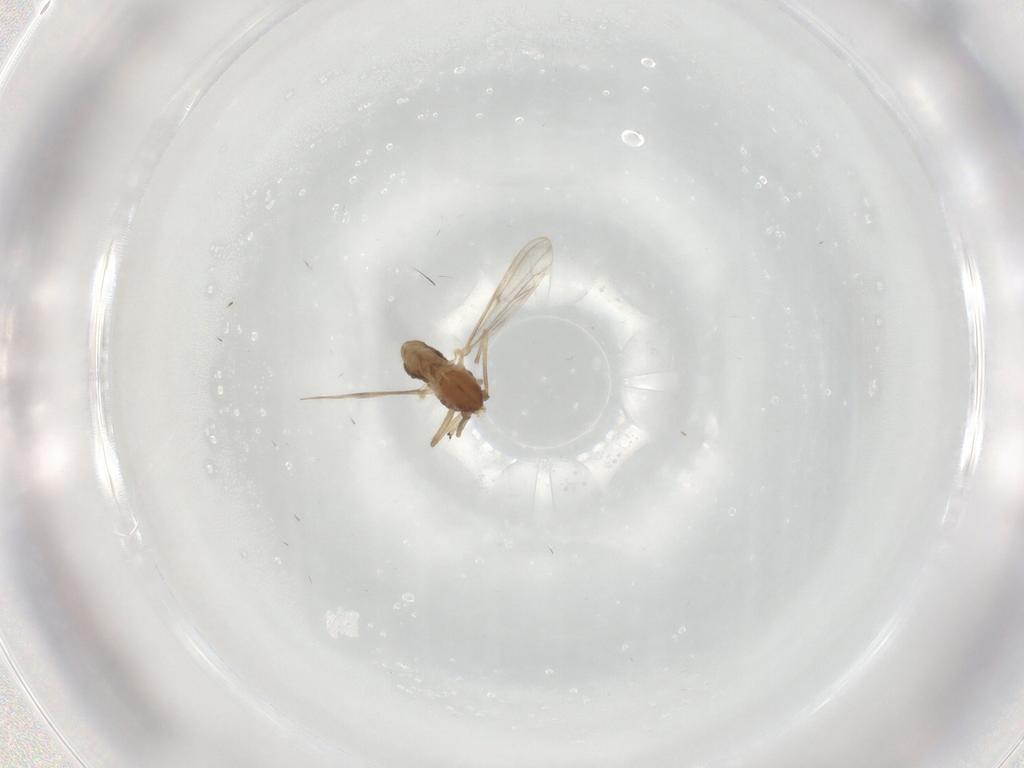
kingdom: Animalia
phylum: Arthropoda
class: Insecta
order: Diptera
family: Chironomidae
